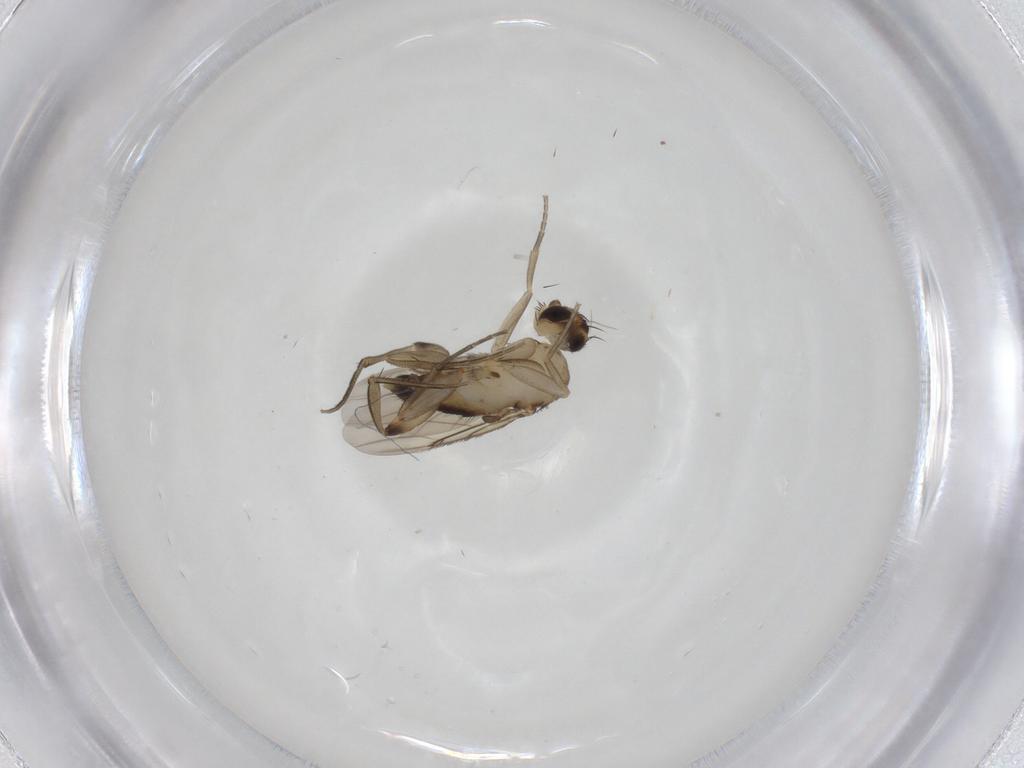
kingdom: Animalia
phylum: Arthropoda
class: Insecta
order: Diptera
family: Phoridae
